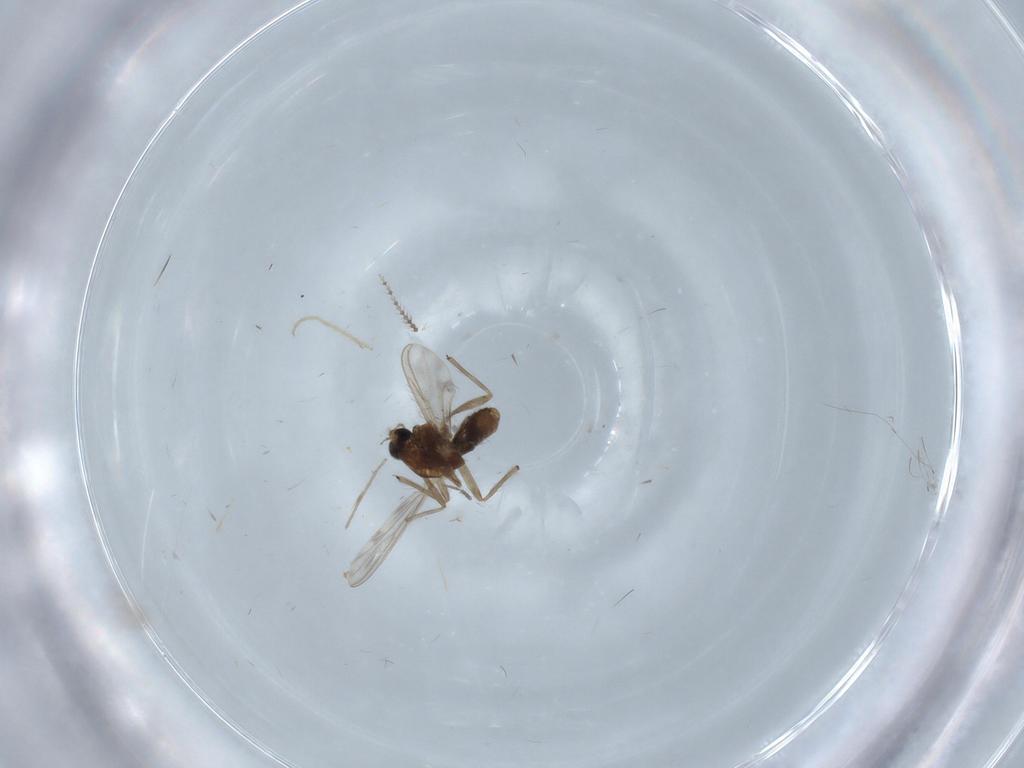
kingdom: Animalia
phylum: Arthropoda
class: Insecta
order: Diptera
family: Chironomidae
